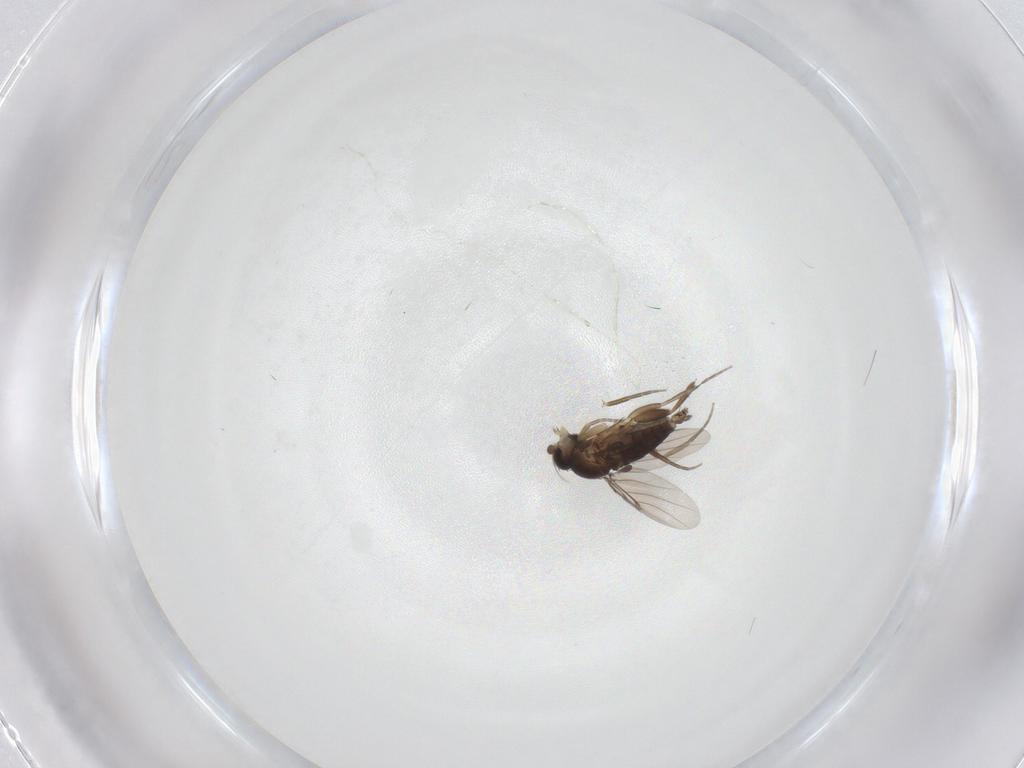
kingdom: Animalia
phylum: Arthropoda
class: Insecta
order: Diptera
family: Phoridae
